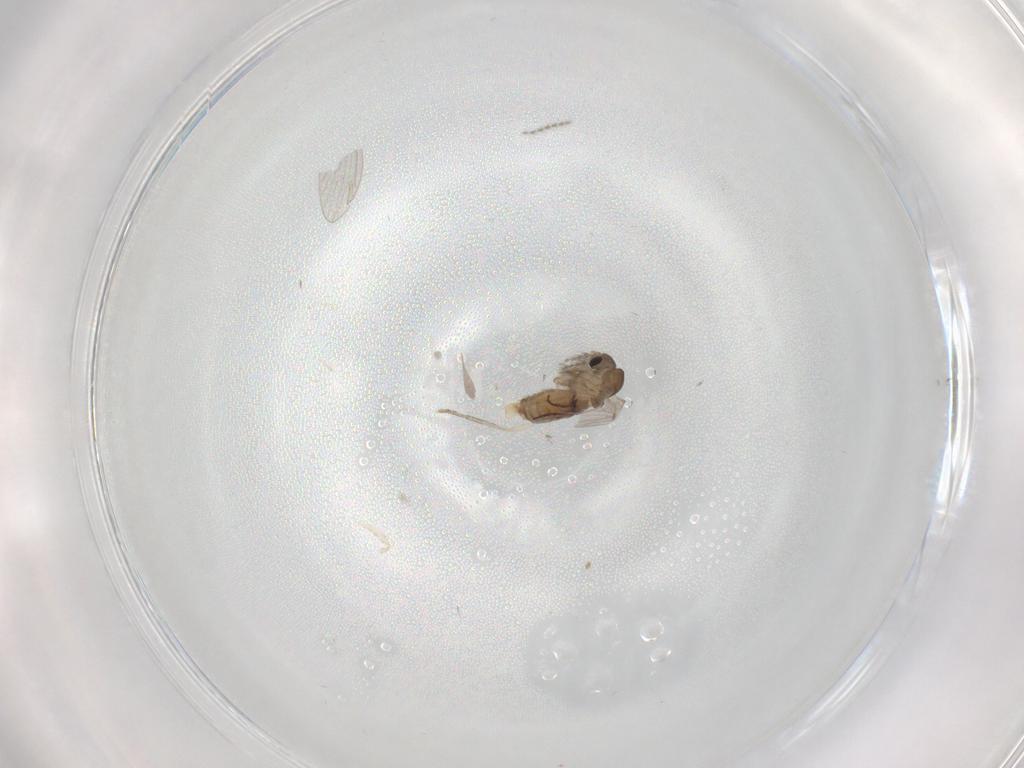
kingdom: Animalia
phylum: Arthropoda
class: Insecta
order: Diptera
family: Psychodidae
